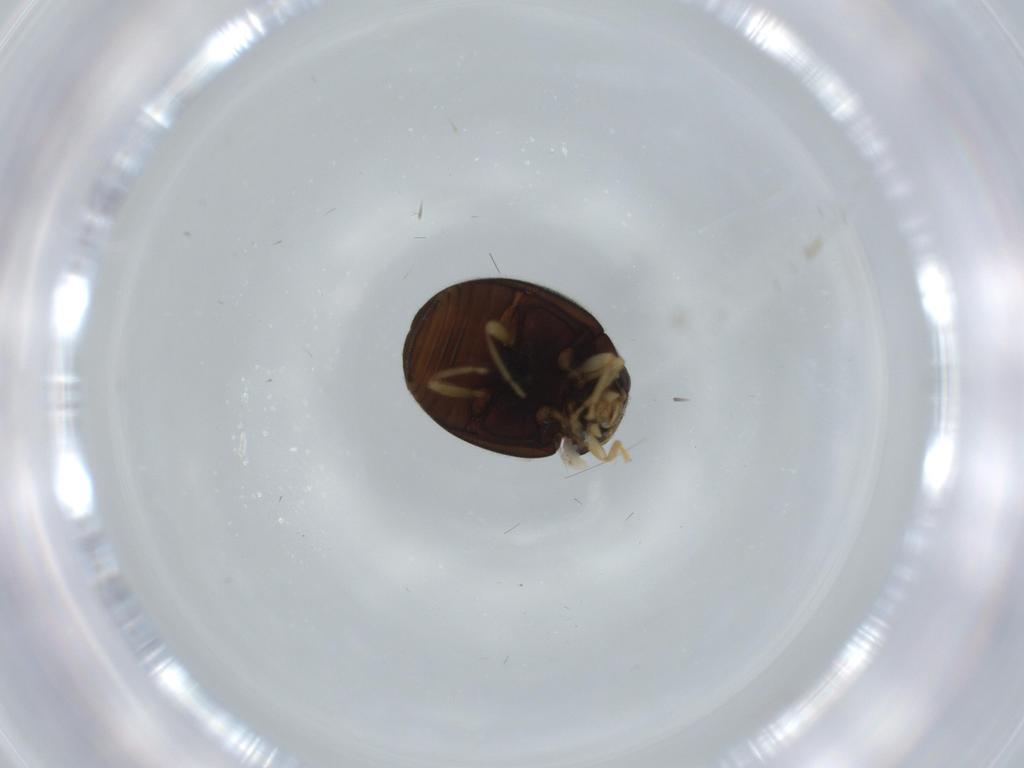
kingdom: Animalia
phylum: Arthropoda
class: Insecta
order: Coleoptera
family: Coccinellidae
